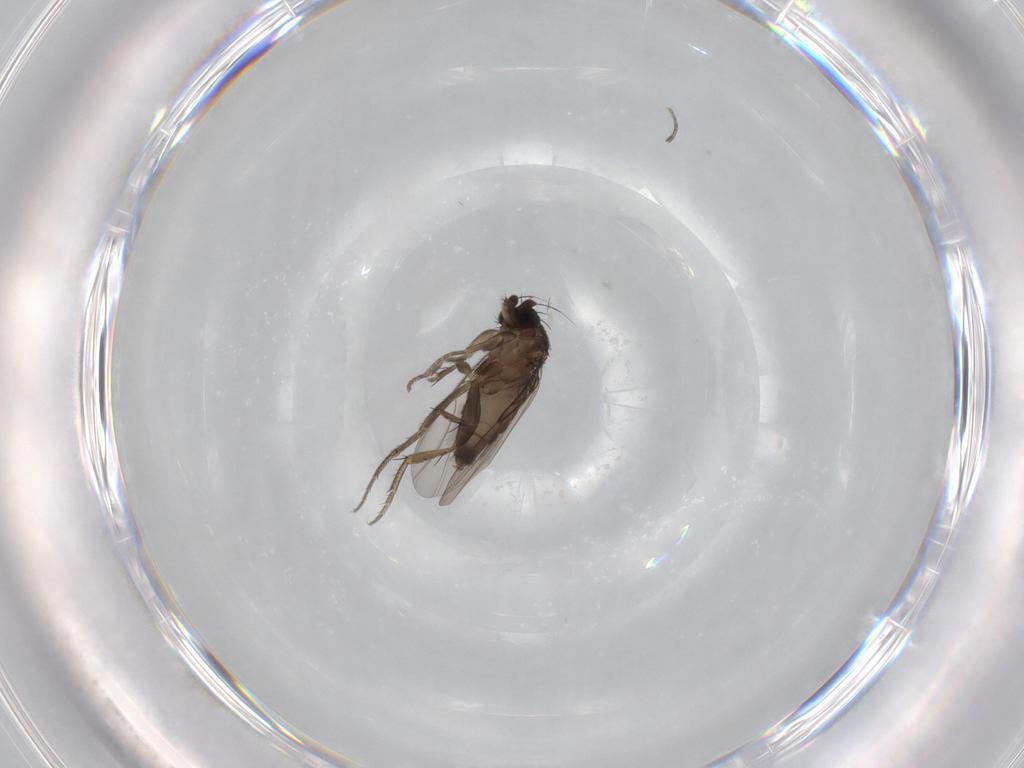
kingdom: Animalia
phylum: Arthropoda
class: Insecta
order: Diptera
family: Phoridae
